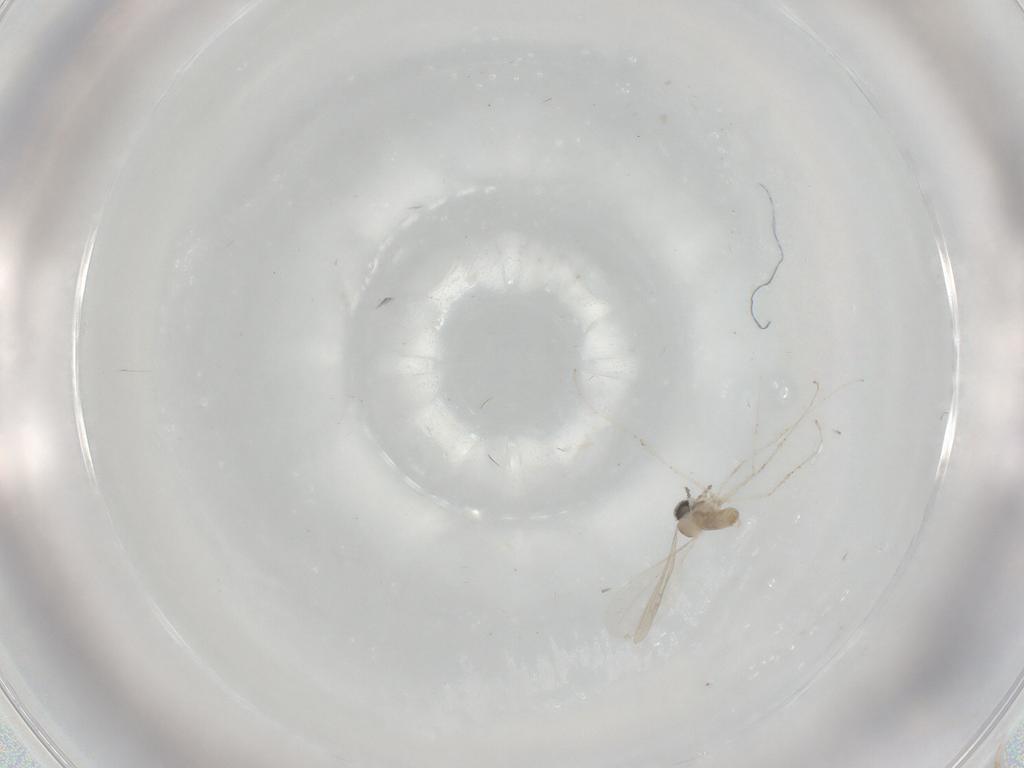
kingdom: Animalia
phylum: Arthropoda
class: Insecta
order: Diptera
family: Cecidomyiidae
